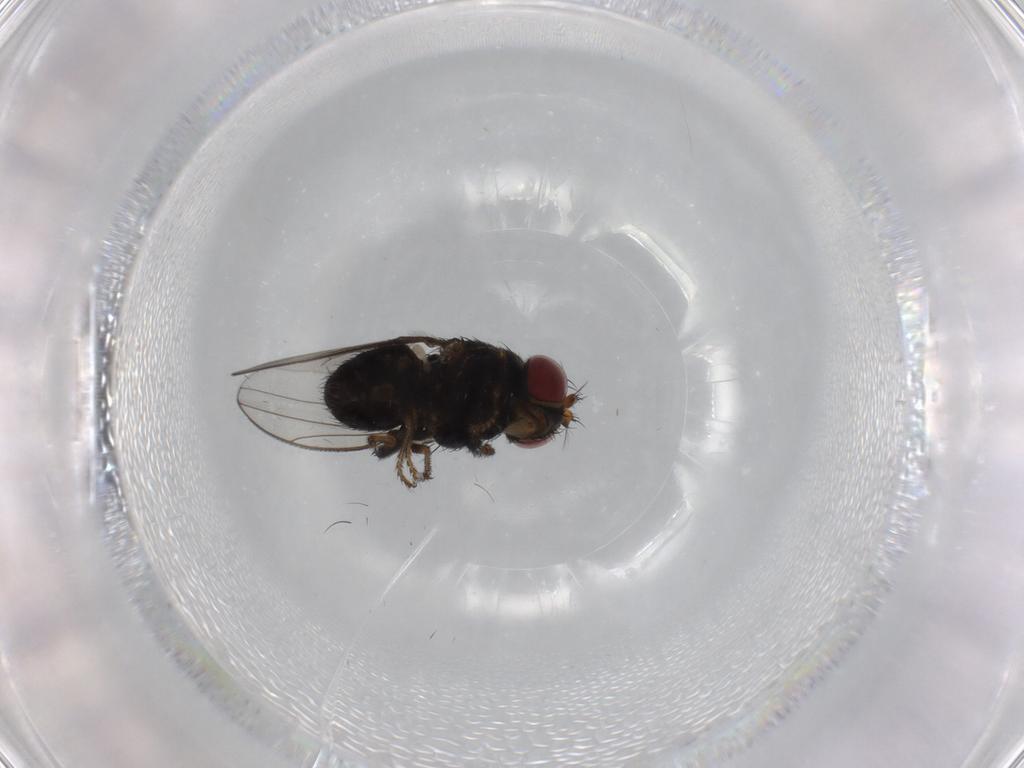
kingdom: Animalia
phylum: Arthropoda
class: Insecta
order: Diptera
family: Ephydridae
